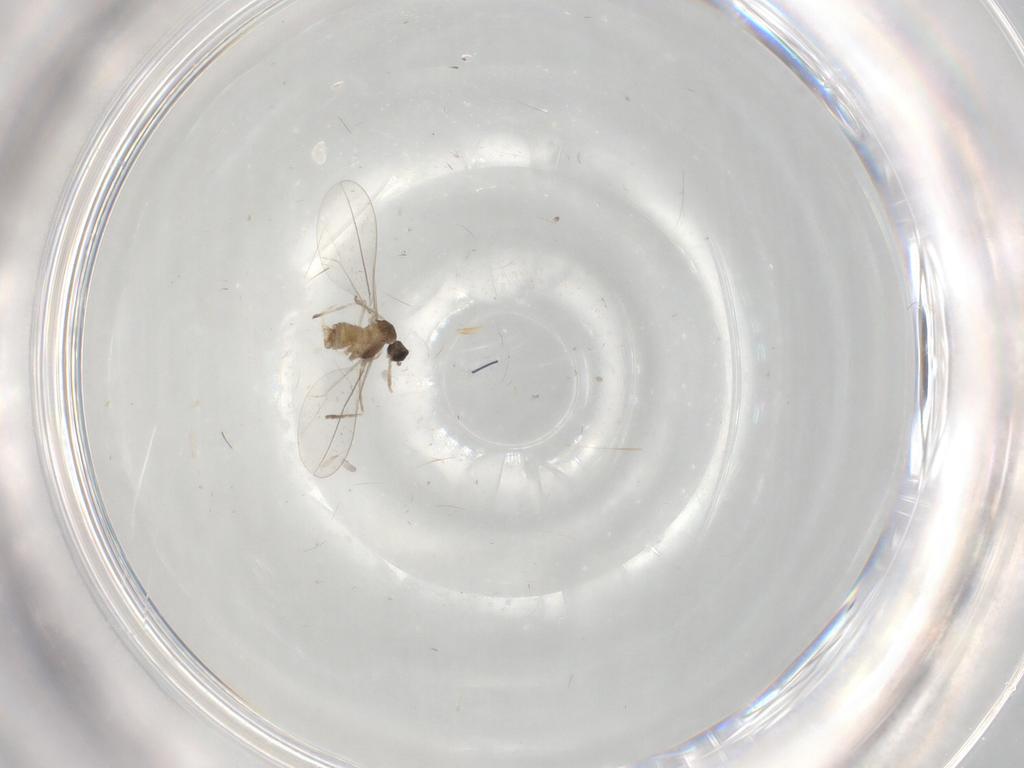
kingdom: Animalia
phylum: Arthropoda
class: Insecta
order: Diptera
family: Cecidomyiidae
